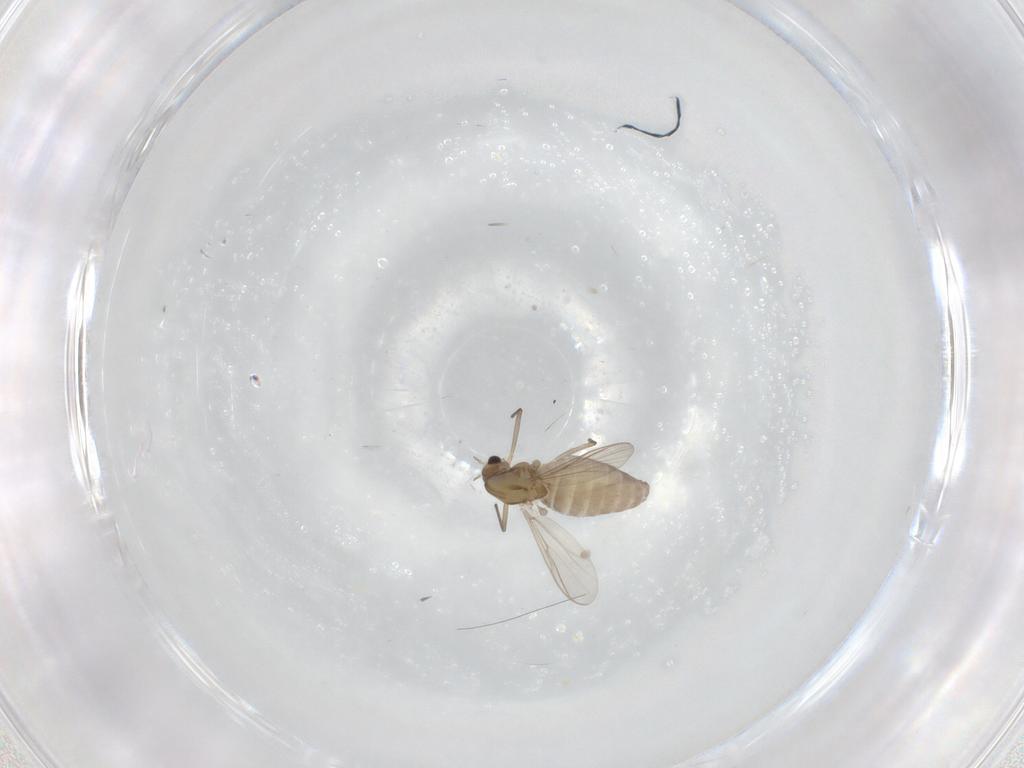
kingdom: Animalia
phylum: Arthropoda
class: Insecta
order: Diptera
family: Chironomidae
